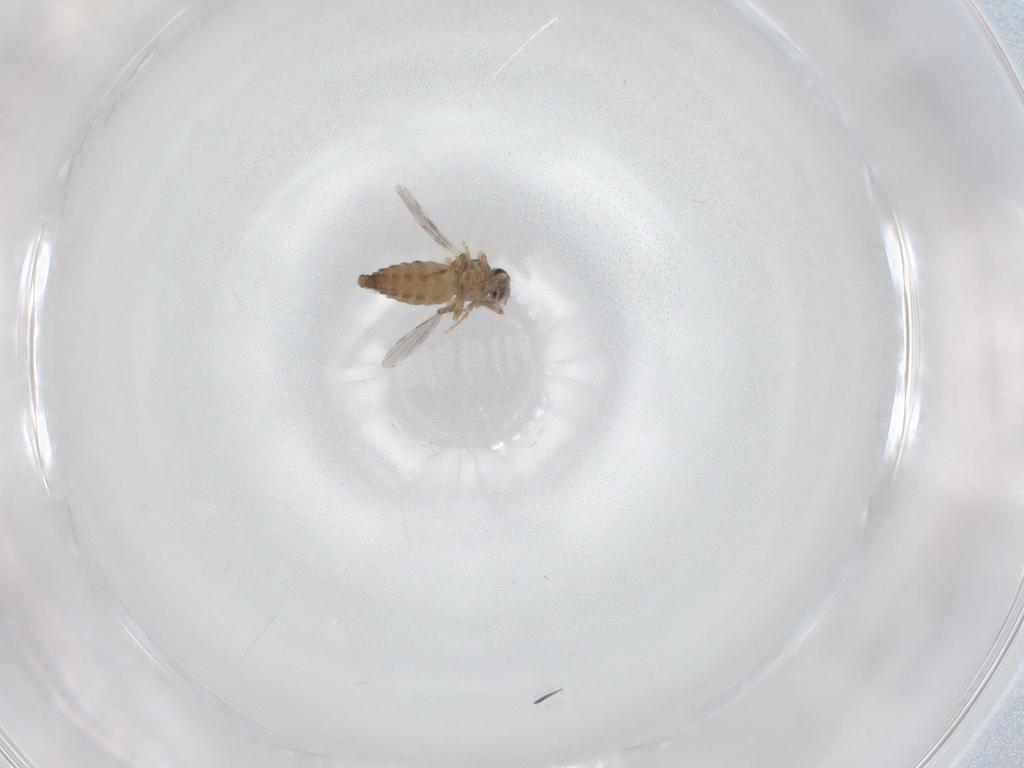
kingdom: Animalia
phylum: Arthropoda
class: Insecta
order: Diptera
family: Ceratopogonidae
